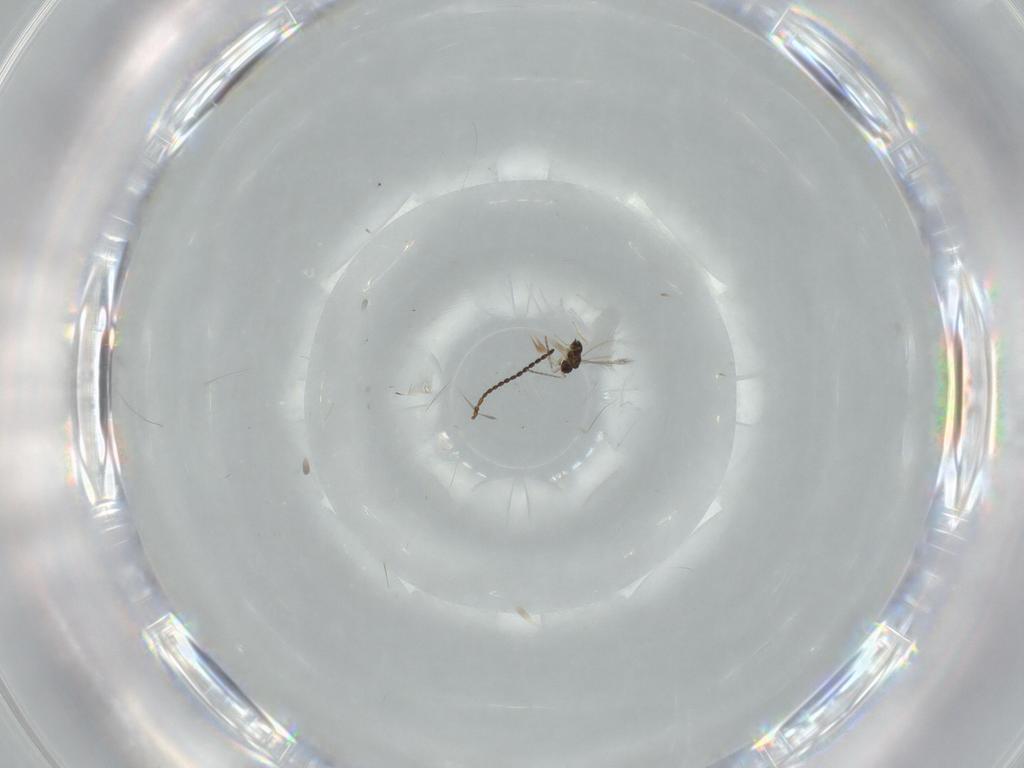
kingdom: Animalia
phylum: Arthropoda
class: Insecta
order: Hymenoptera
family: Figitidae
